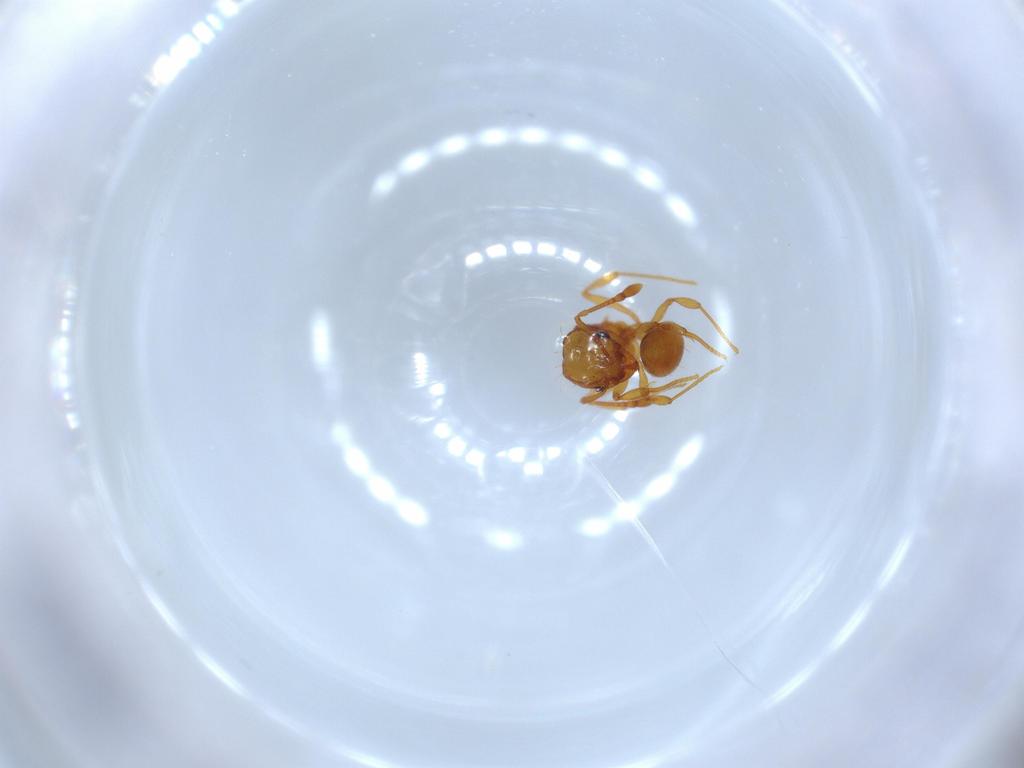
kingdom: Animalia
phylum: Arthropoda
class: Insecta
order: Hymenoptera
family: Formicidae
